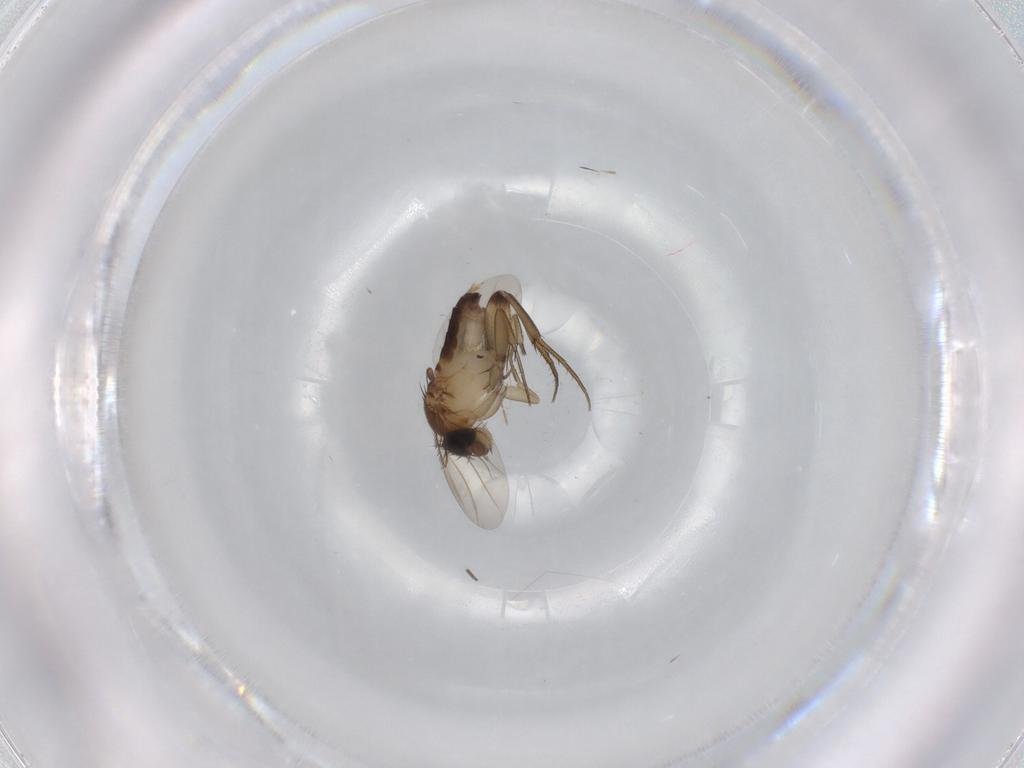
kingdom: Animalia
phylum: Arthropoda
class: Insecta
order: Diptera
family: Phoridae
